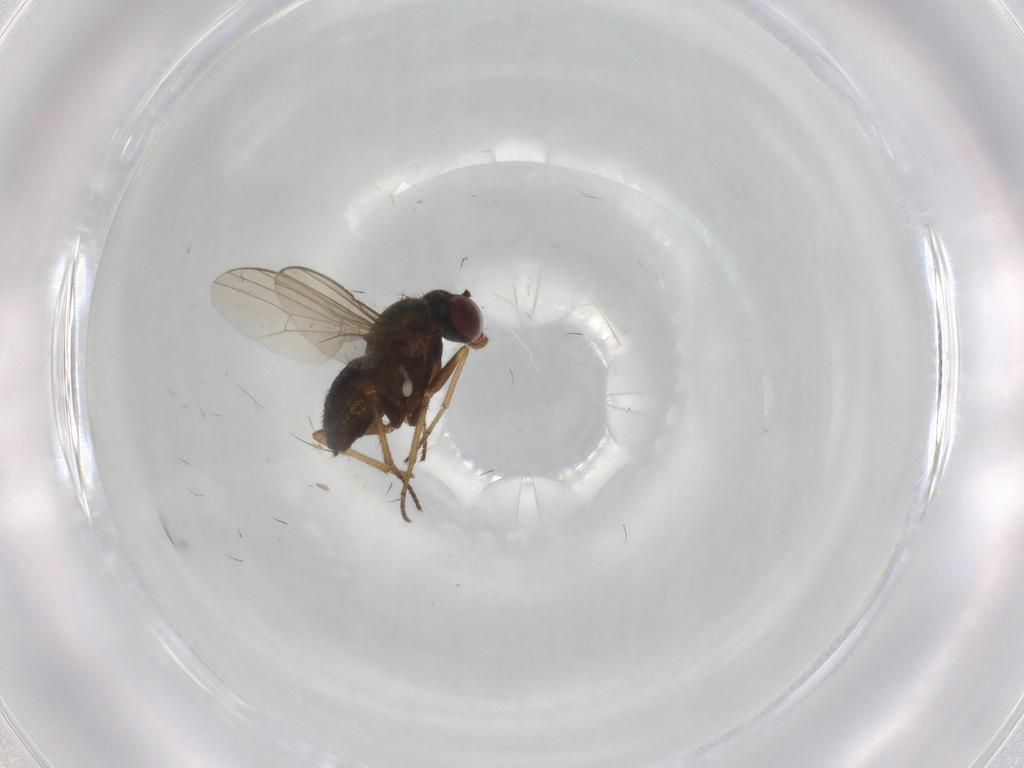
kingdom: Animalia
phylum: Arthropoda
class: Insecta
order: Diptera
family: Dolichopodidae
